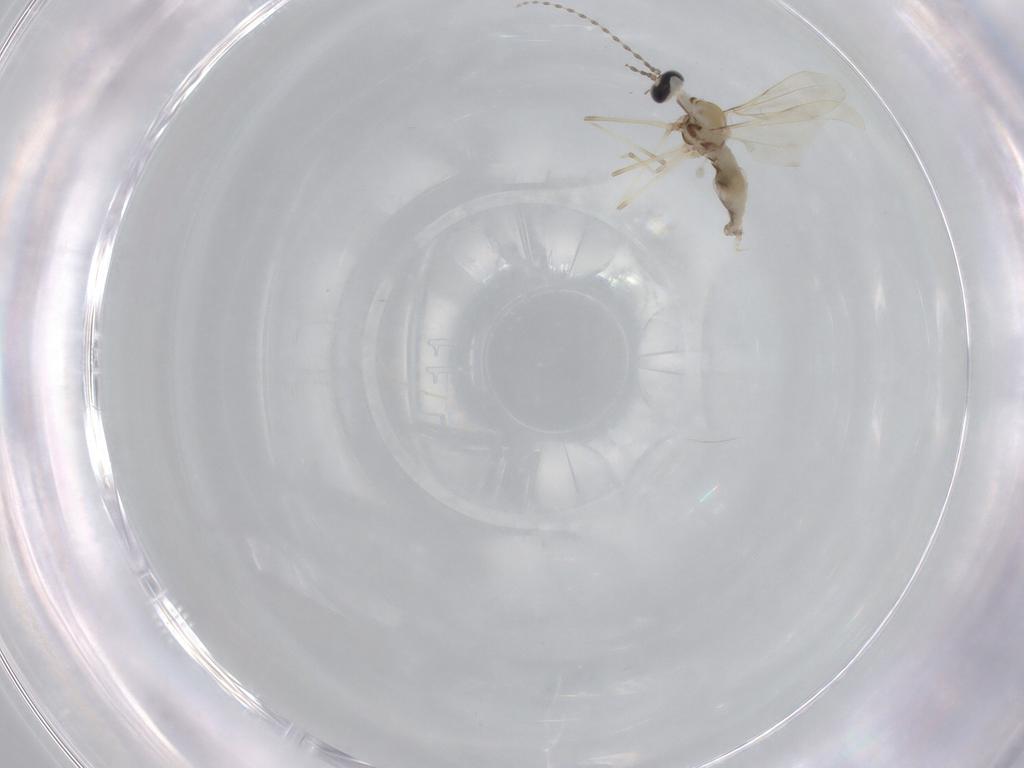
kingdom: Animalia
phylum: Arthropoda
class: Insecta
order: Diptera
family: Cecidomyiidae
